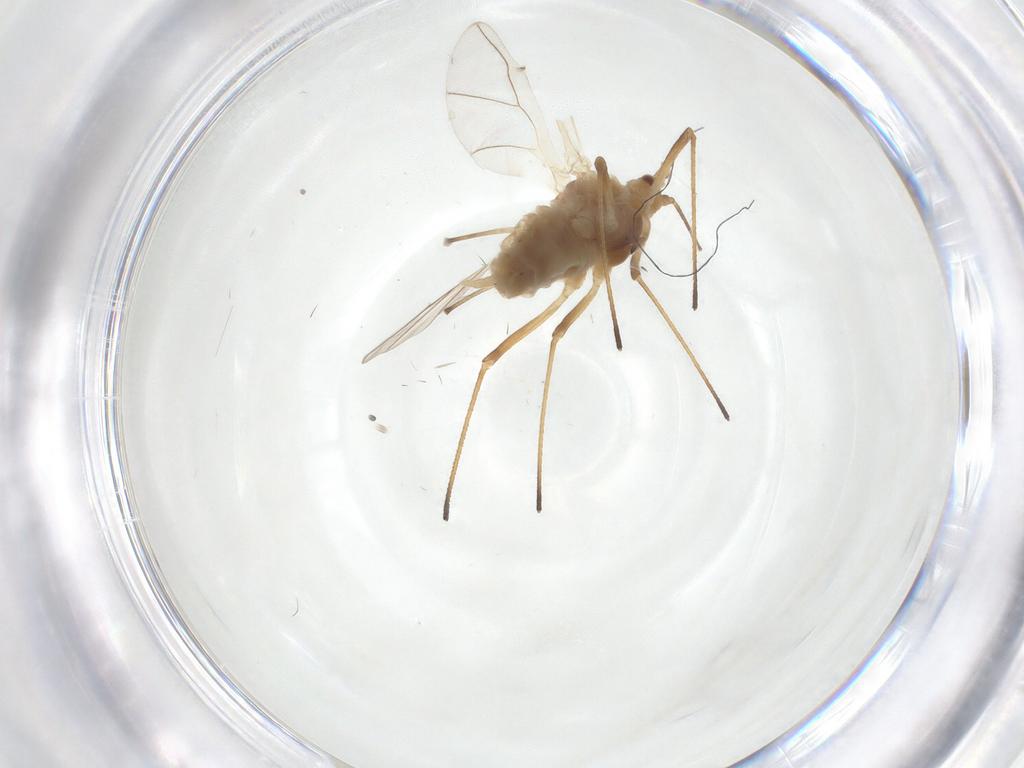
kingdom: Animalia
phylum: Arthropoda
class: Insecta
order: Hemiptera
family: Aphididae
